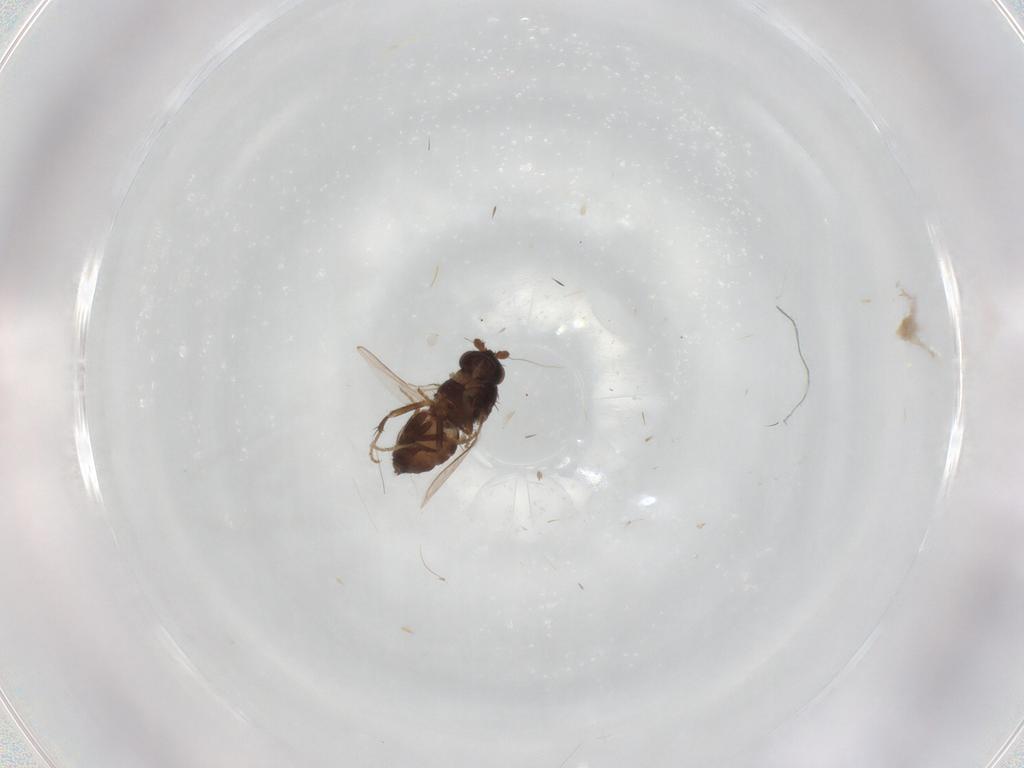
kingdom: Animalia
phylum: Arthropoda
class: Insecta
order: Diptera
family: Sphaeroceridae
